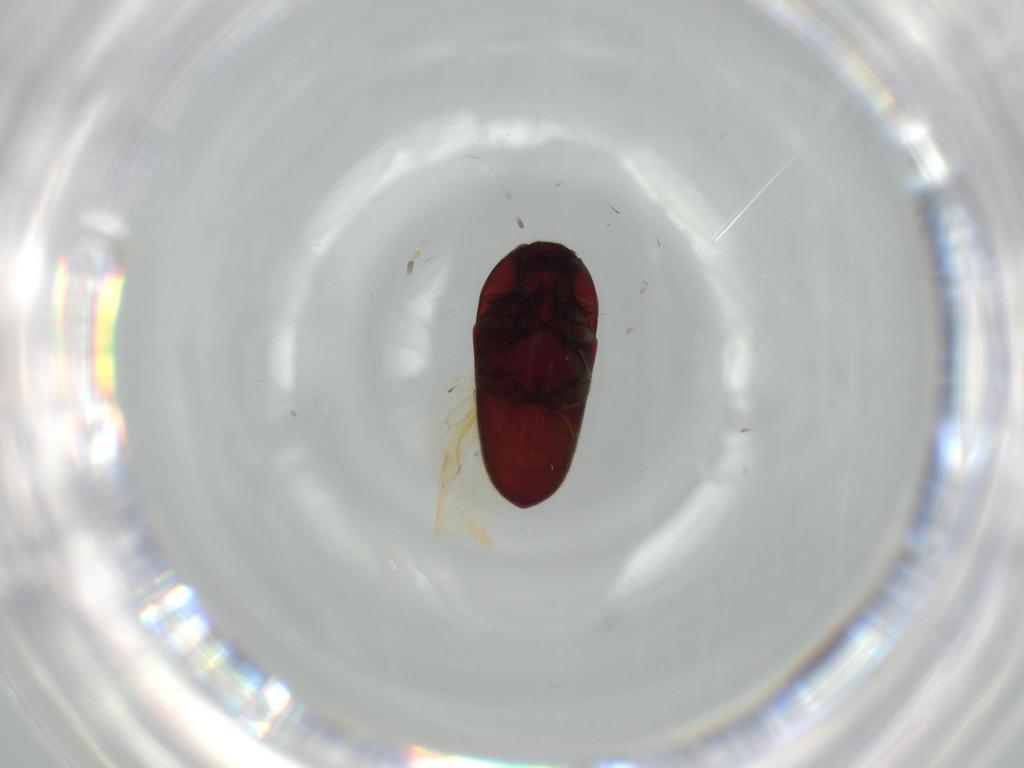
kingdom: Animalia
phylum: Arthropoda
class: Insecta
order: Coleoptera
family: Throscidae
